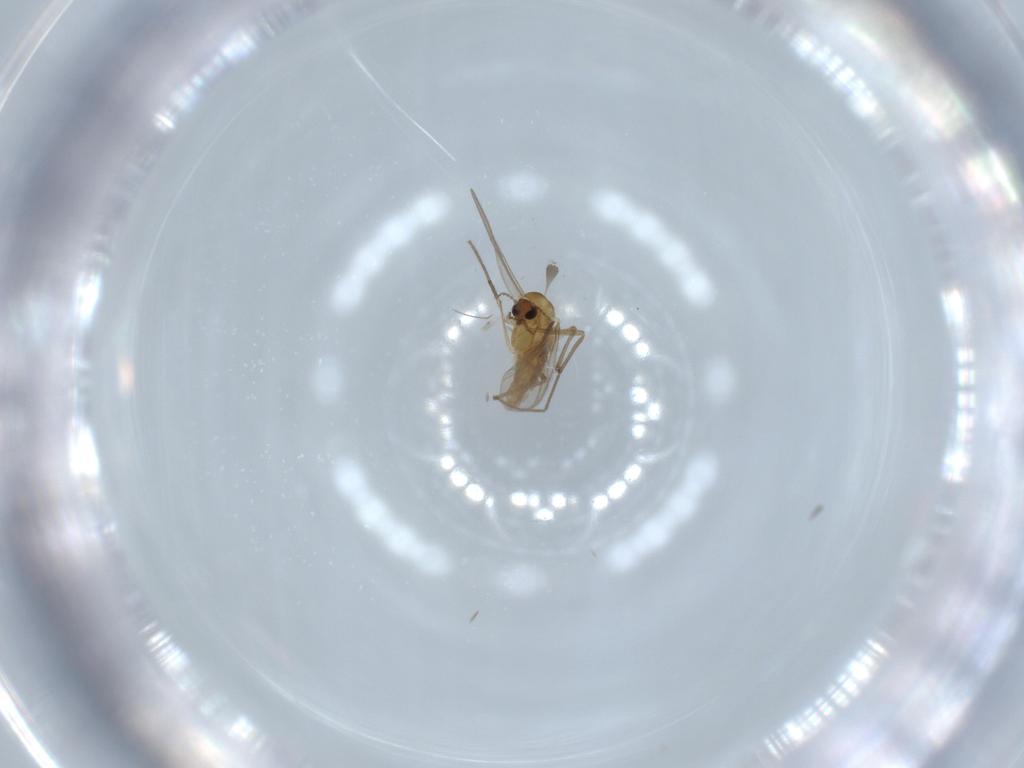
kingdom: Animalia
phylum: Arthropoda
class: Insecta
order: Diptera
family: Chironomidae
